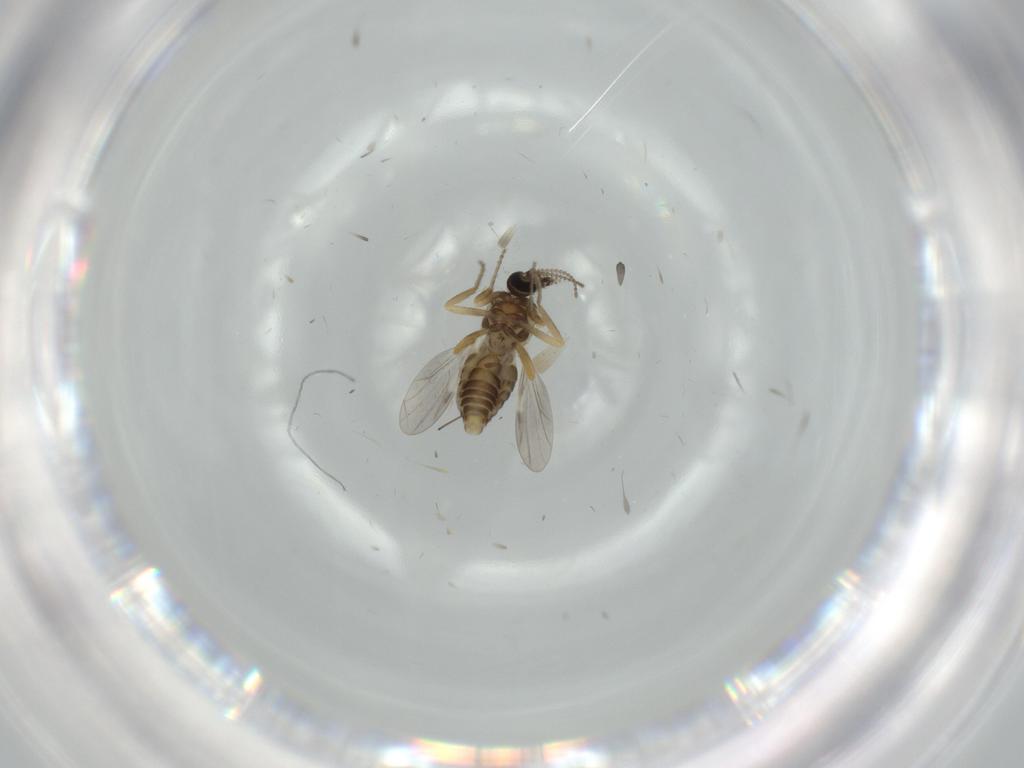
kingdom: Animalia
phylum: Arthropoda
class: Insecta
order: Diptera
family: Ceratopogonidae
